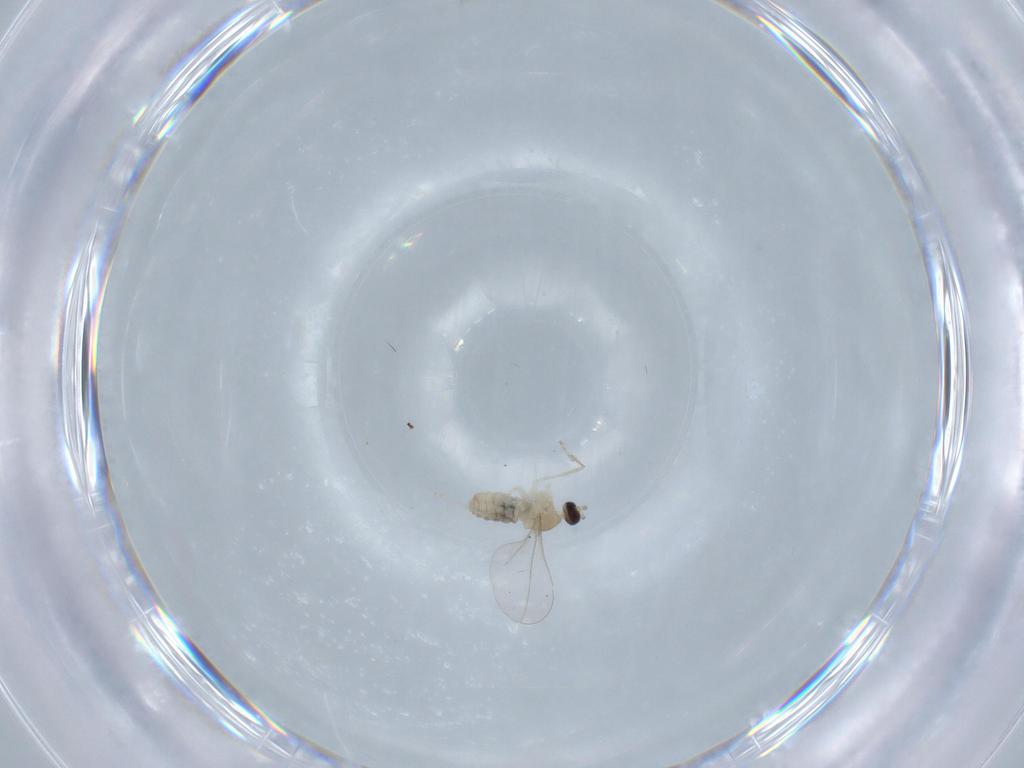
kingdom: Animalia
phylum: Arthropoda
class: Insecta
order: Diptera
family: Cecidomyiidae
